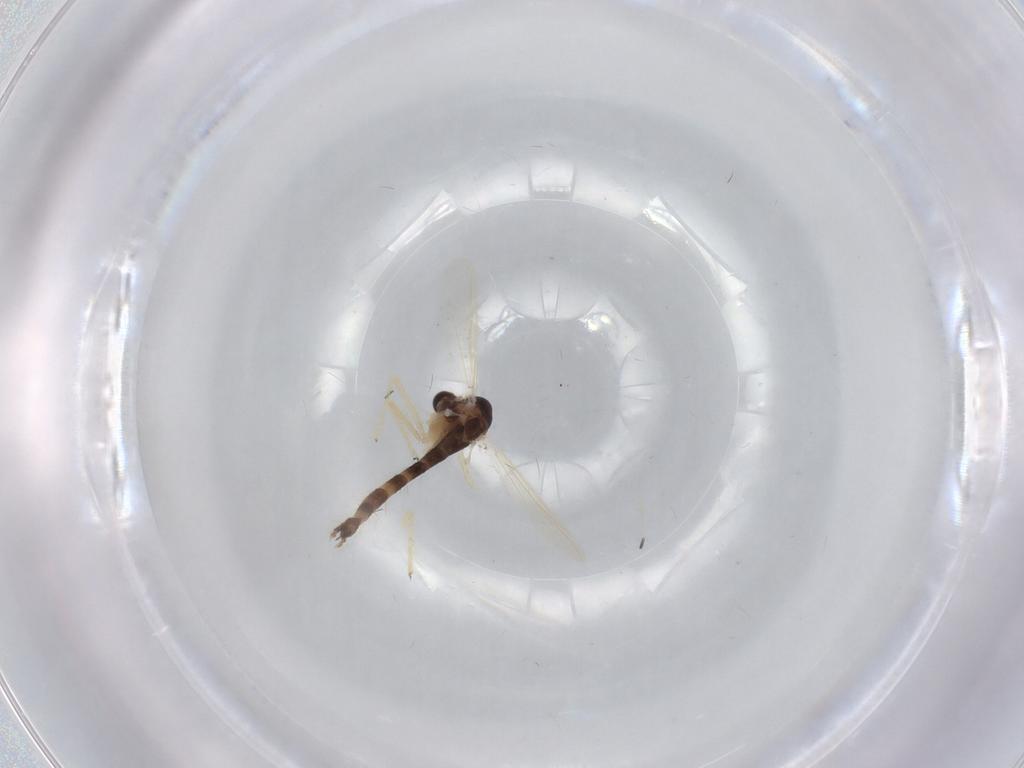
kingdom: Animalia
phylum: Arthropoda
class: Insecta
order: Diptera
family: Chironomidae
